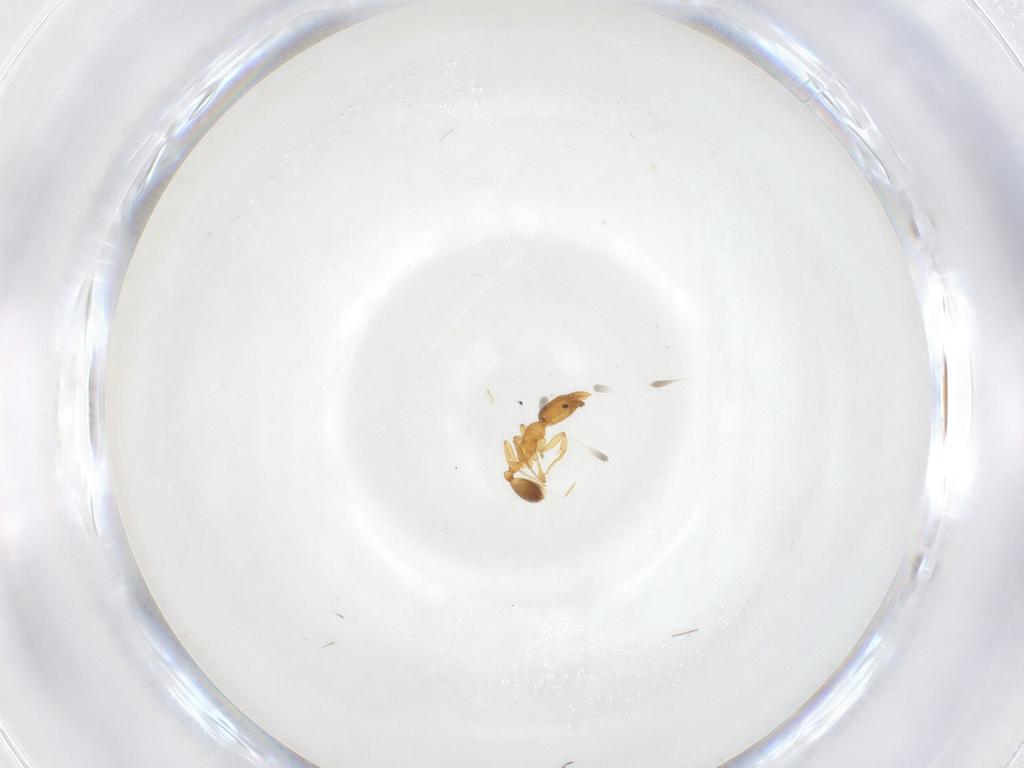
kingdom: Animalia
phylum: Arthropoda
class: Insecta
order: Hymenoptera
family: Formicidae
